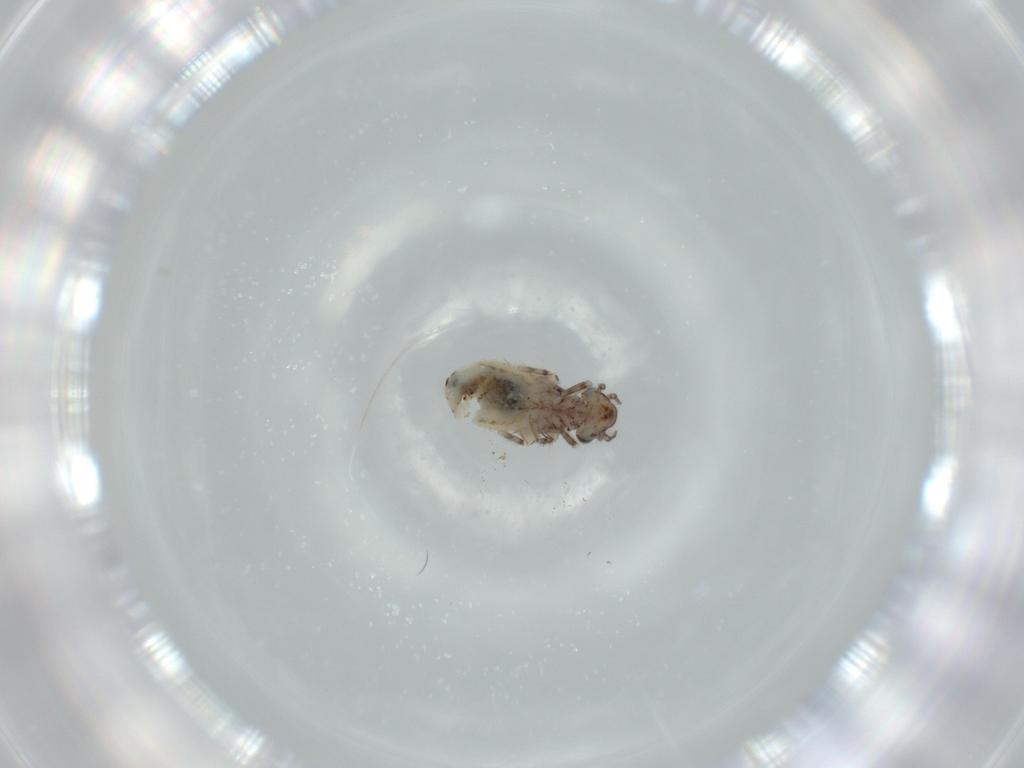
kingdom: Animalia
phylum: Arthropoda
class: Insecta
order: Psocodea
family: Lepidopsocidae
